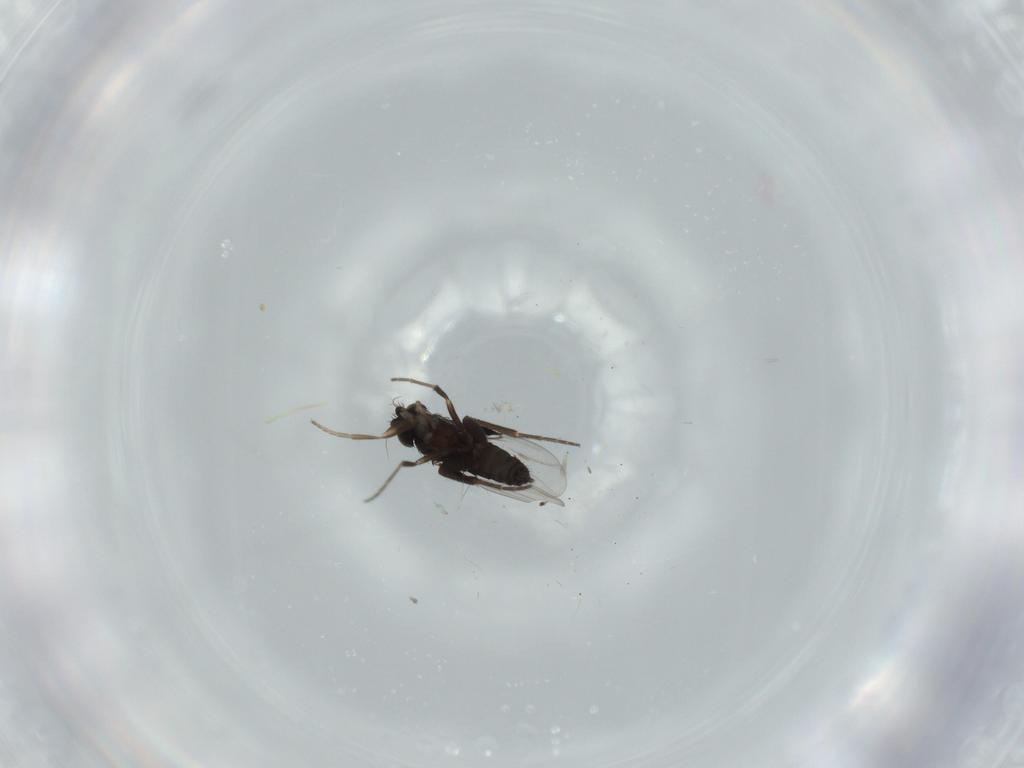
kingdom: Animalia
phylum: Arthropoda
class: Insecta
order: Diptera
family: Phoridae
